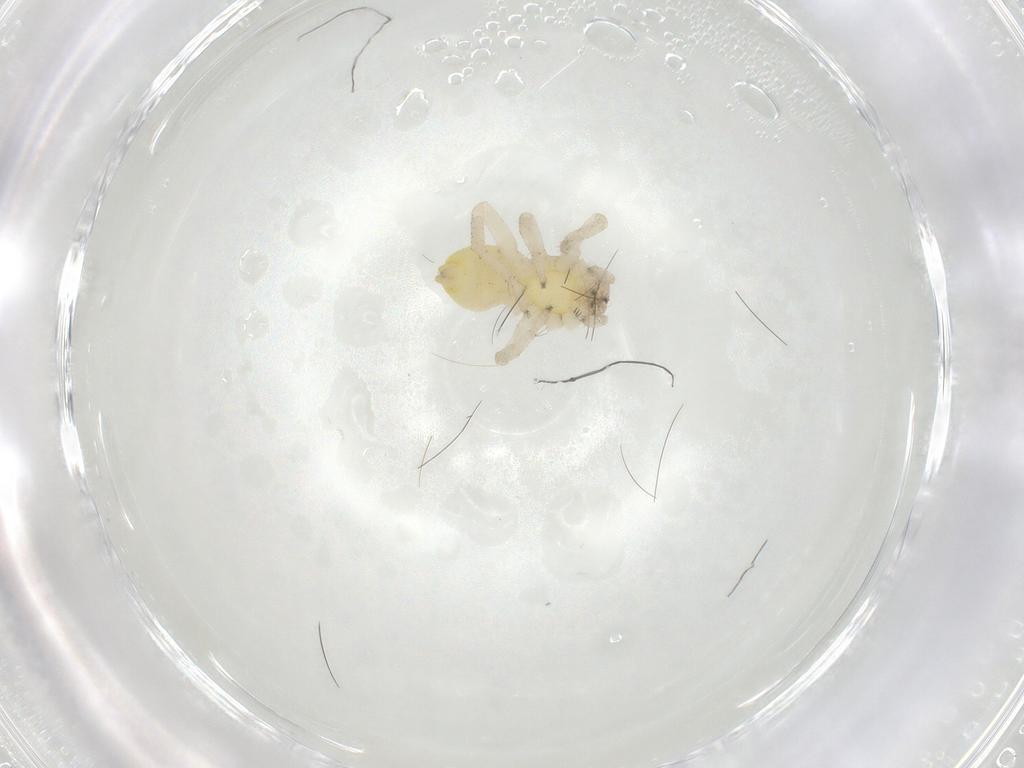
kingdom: Animalia
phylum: Arthropoda
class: Arachnida
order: Araneae
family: Clubionidae
